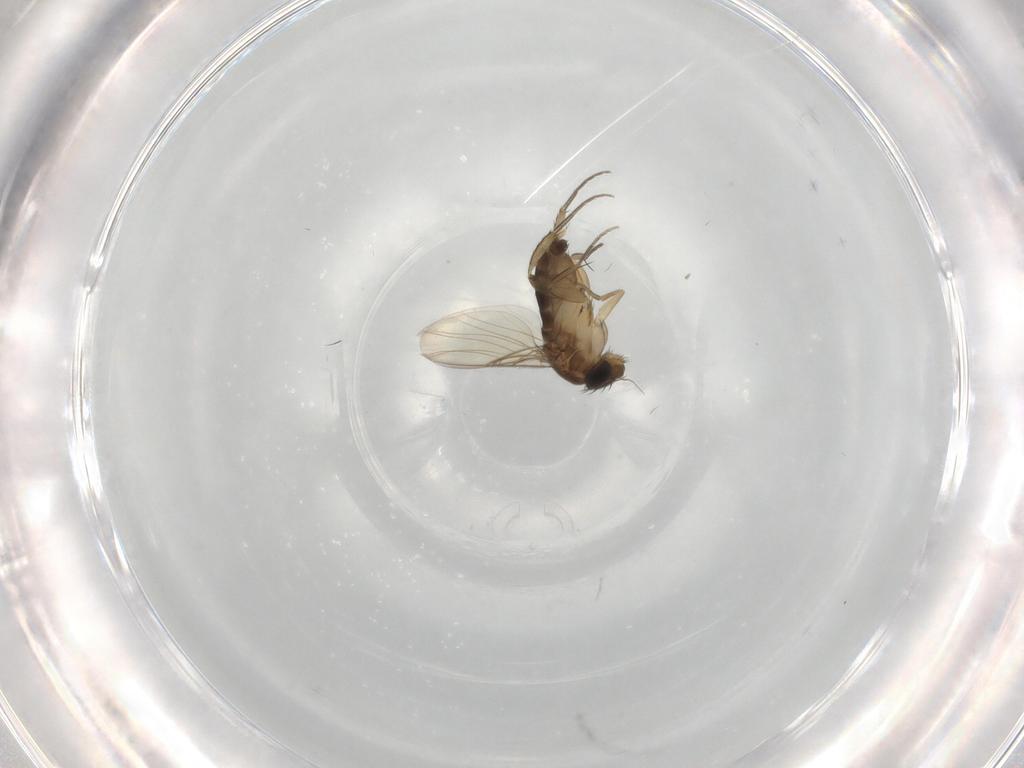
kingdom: Animalia
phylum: Arthropoda
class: Insecta
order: Diptera
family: Phoridae
